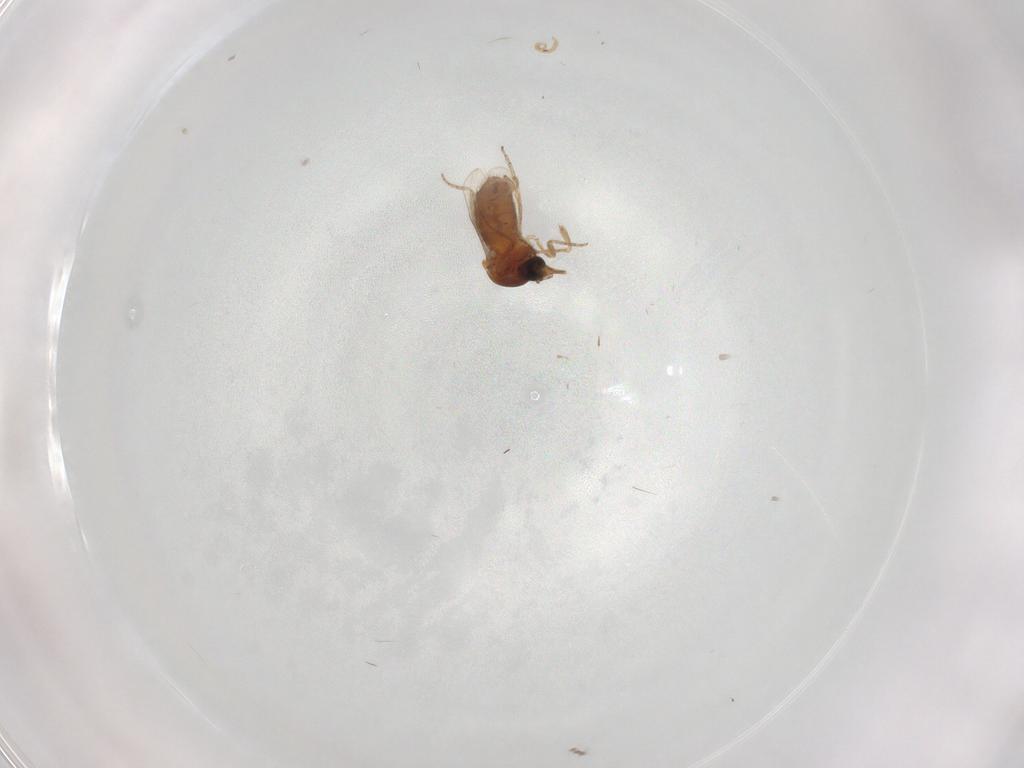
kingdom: Animalia
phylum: Arthropoda
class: Insecta
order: Diptera
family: Ceratopogonidae
